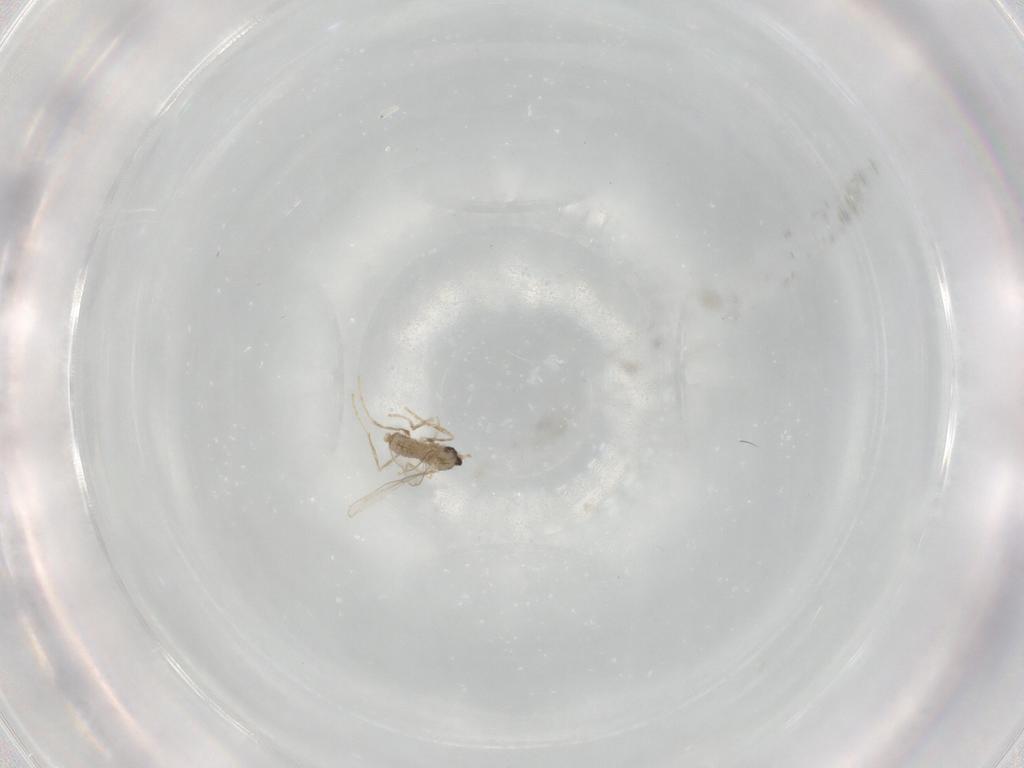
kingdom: Animalia
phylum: Arthropoda
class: Insecta
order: Diptera
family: Cecidomyiidae
